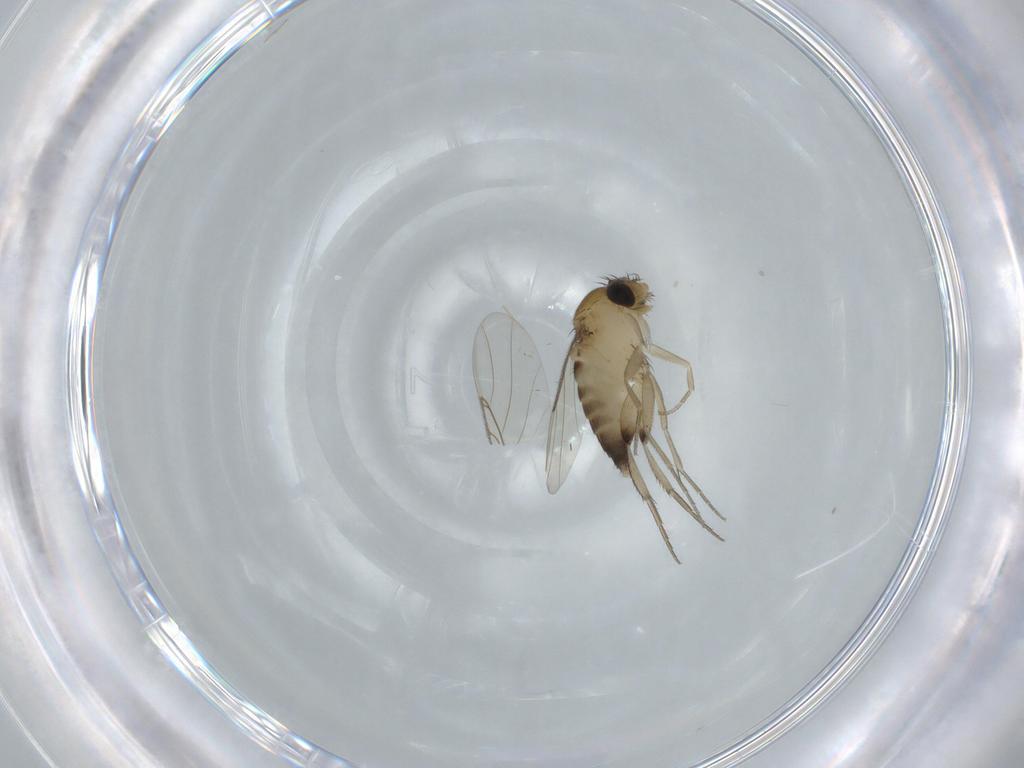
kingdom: Animalia
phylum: Arthropoda
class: Insecta
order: Diptera
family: Phoridae
